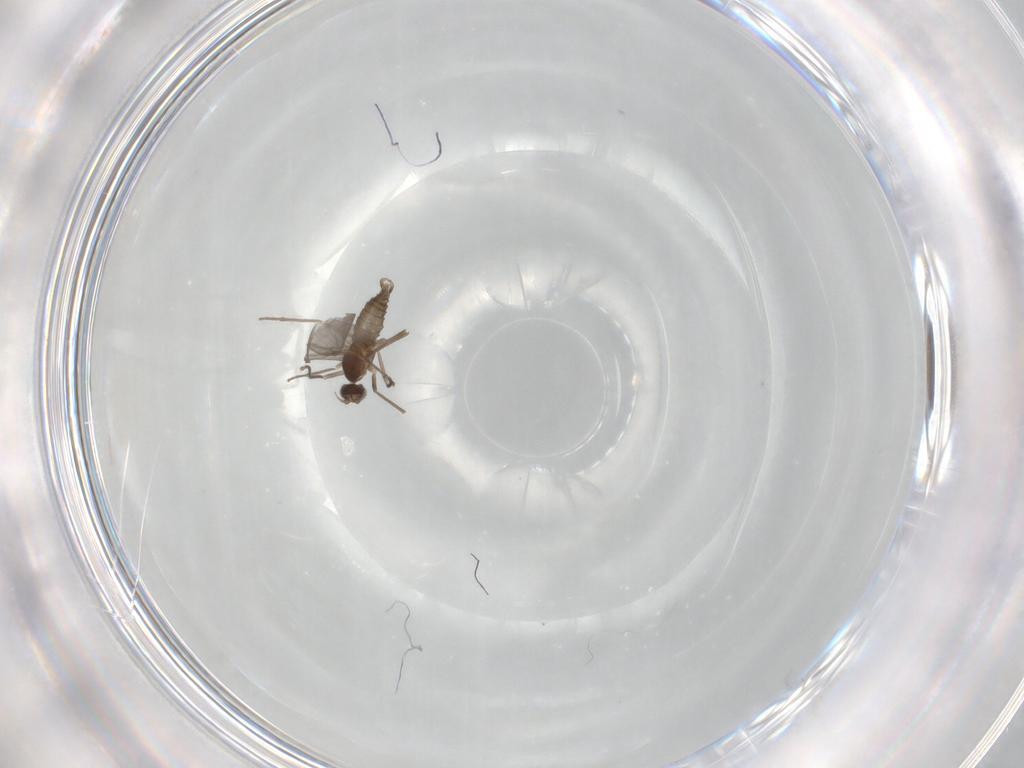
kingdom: Animalia
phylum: Arthropoda
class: Insecta
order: Diptera
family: Cecidomyiidae
